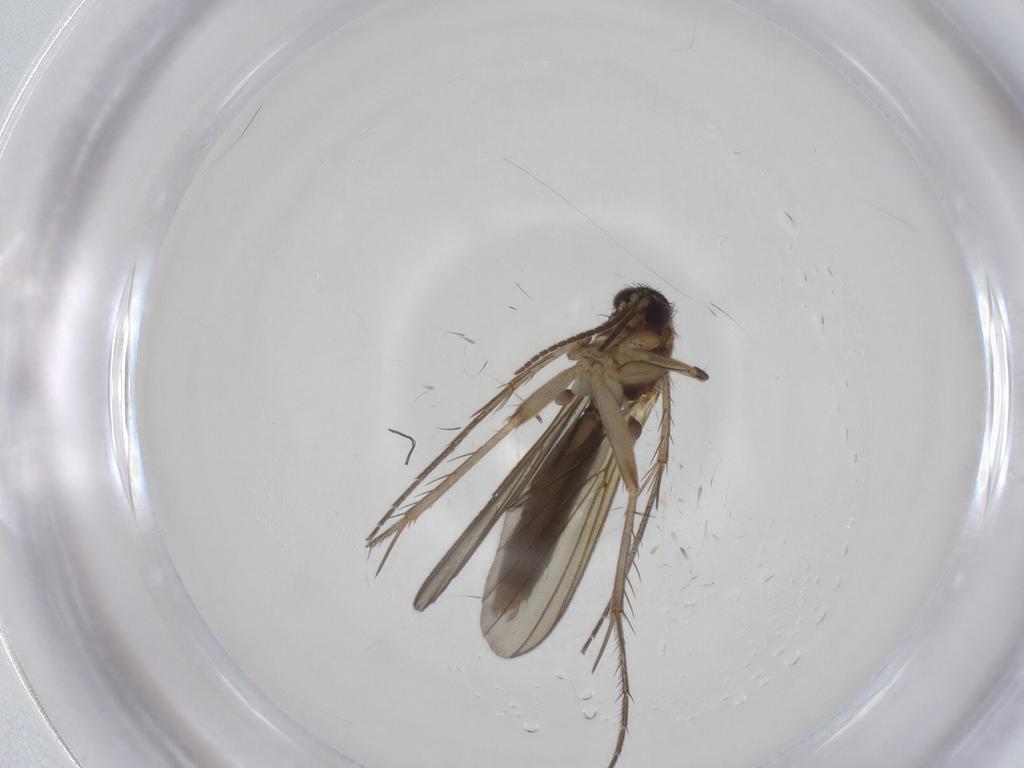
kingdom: Animalia
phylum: Arthropoda
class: Insecta
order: Diptera
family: Mycetophilidae
